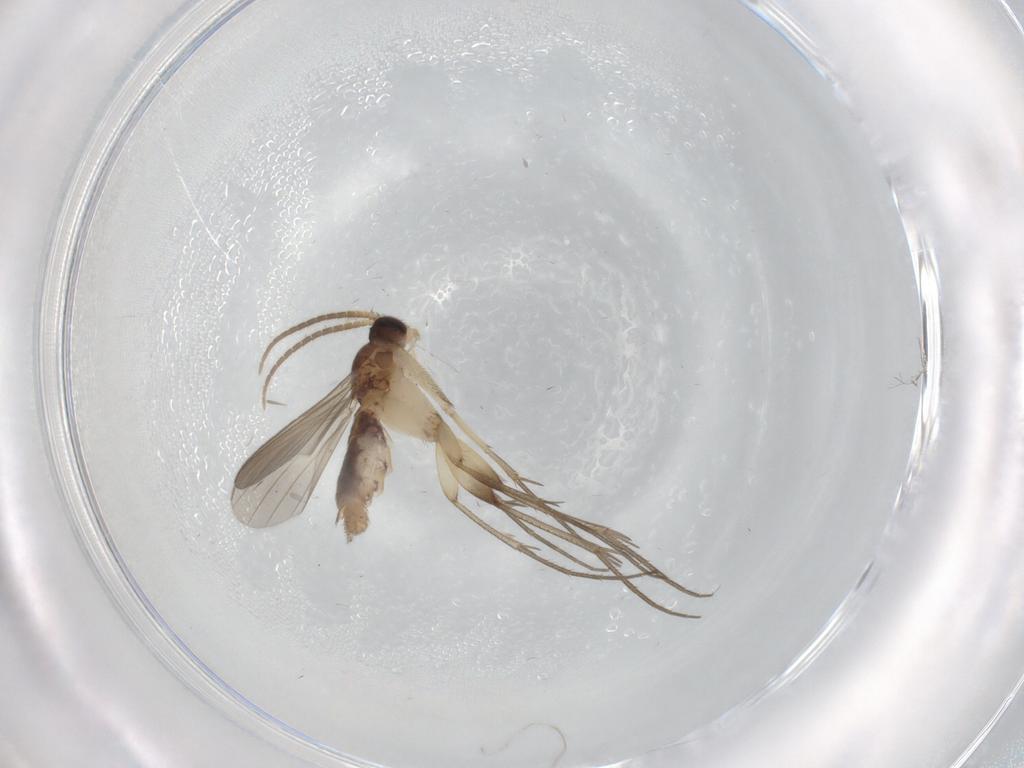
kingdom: Animalia
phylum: Arthropoda
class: Insecta
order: Diptera
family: Mycetophilidae
